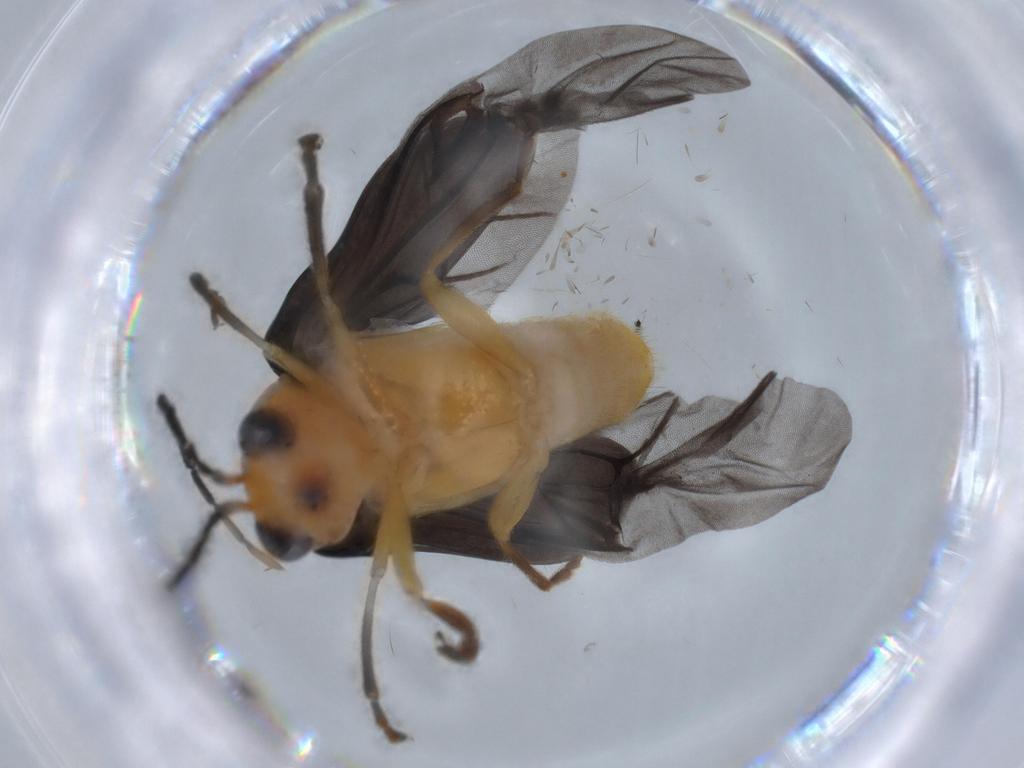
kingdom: Animalia
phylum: Arthropoda
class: Insecta
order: Coleoptera
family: Chrysomelidae
